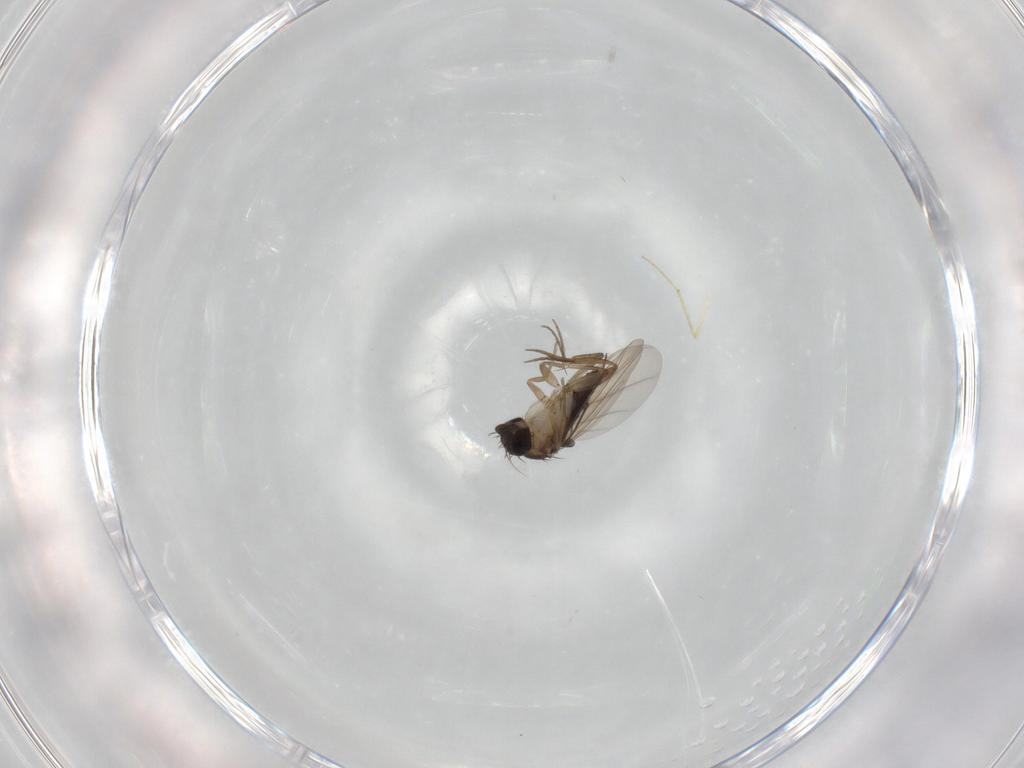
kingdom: Animalia
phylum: Arthropoda
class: Insecta
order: Diptera
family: Phoridae
